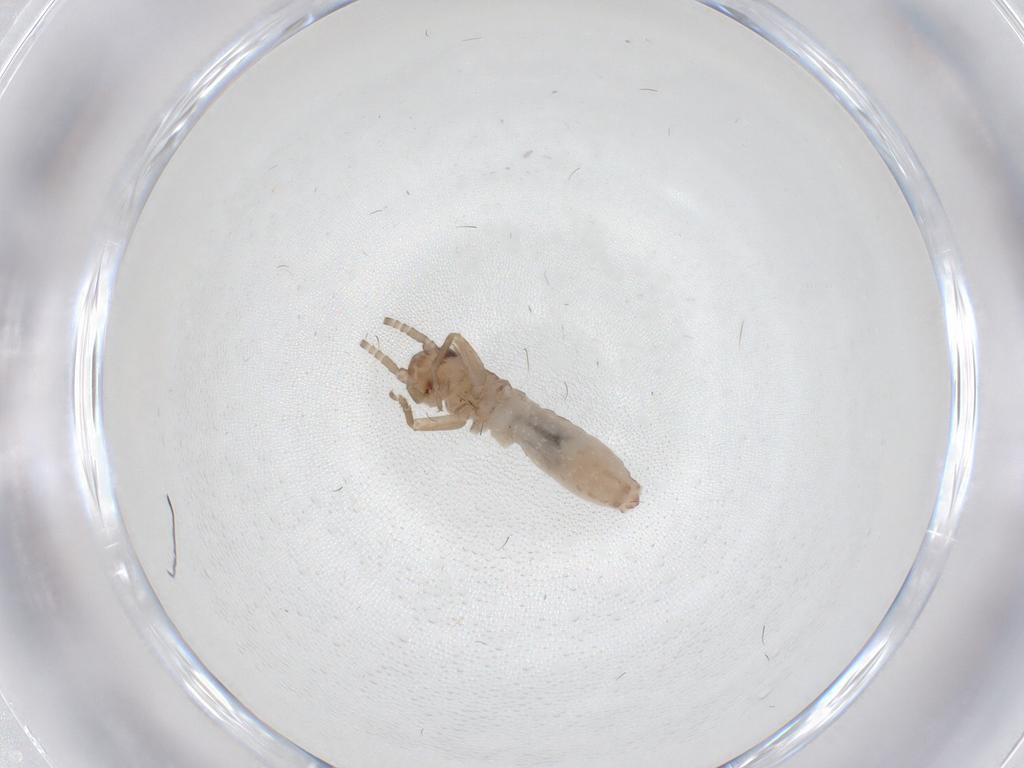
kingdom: Animalia
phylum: Arthropoda
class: Insecta
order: Orthoptera
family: Mogoplistidae
